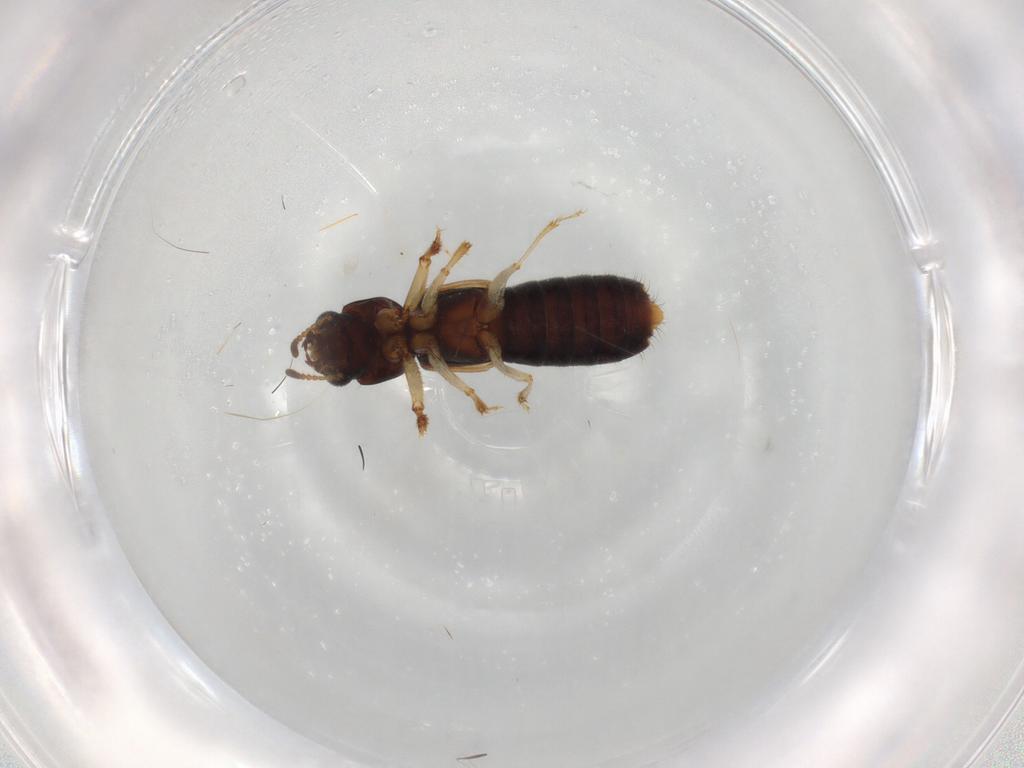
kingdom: Animalia
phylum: Arthropoda
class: Insecta
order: Coleoptera
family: Staphylinidae
